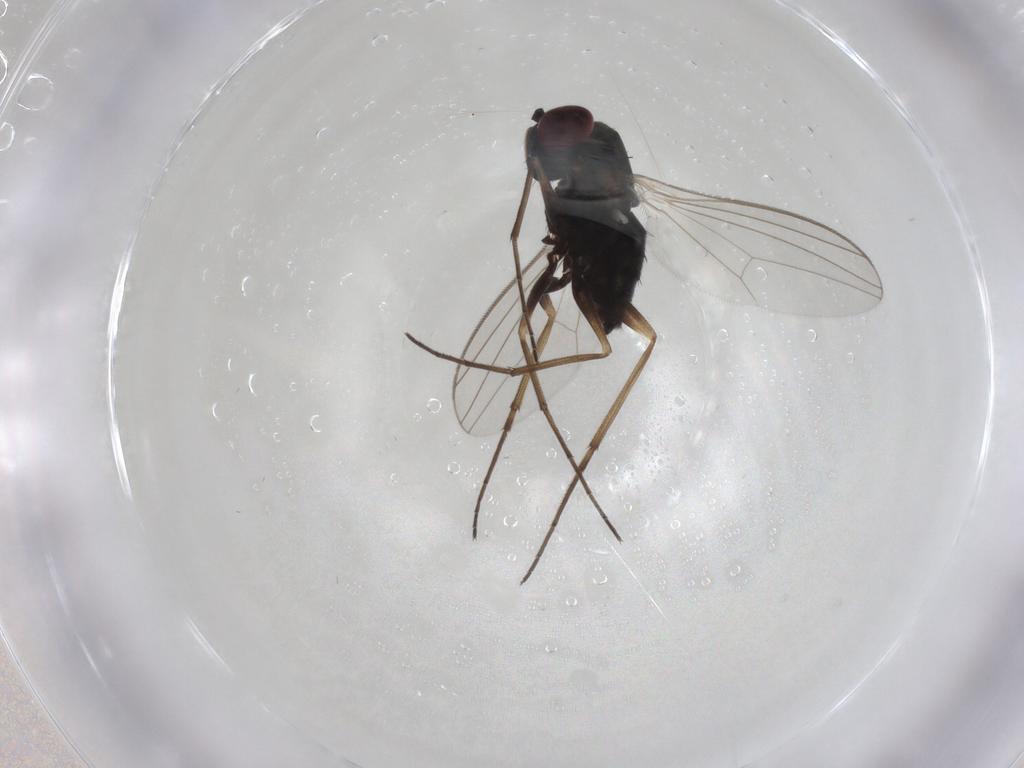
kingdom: Animalia
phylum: Arthropoda
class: Insecta
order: Diptera
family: Dolichopodidae
